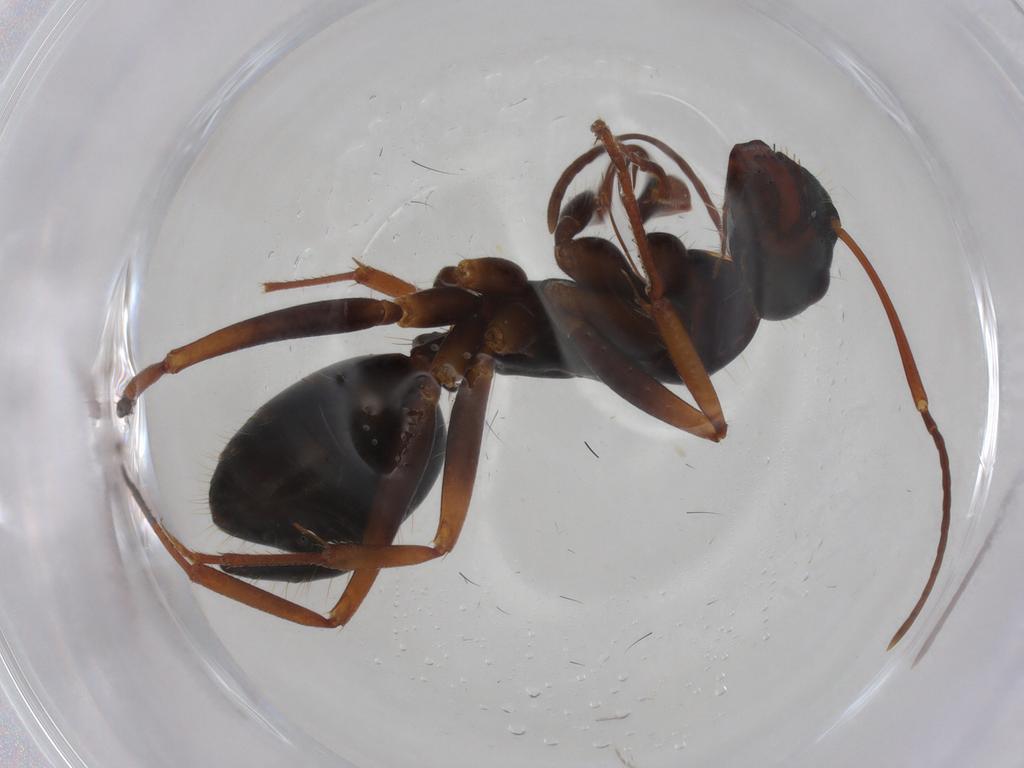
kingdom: Animalia
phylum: Arthropoda
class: Insecta
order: Hymenoptera
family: Formicidae
